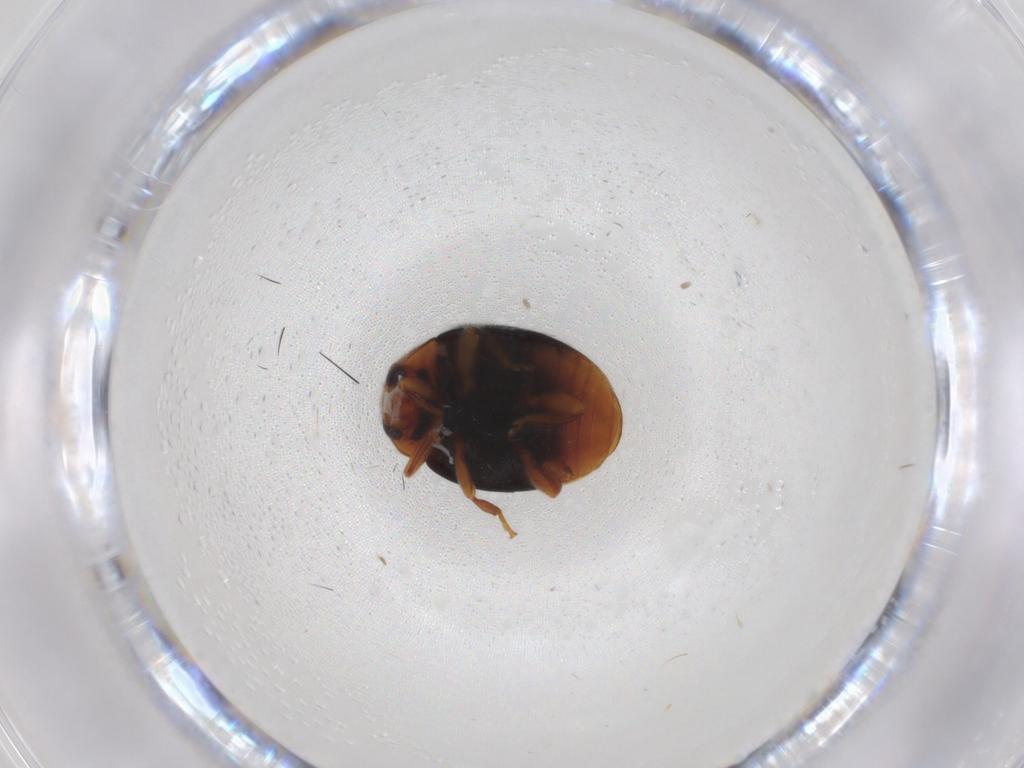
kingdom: Animalia
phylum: Arthropoda
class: Insecta
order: Coleoptera
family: Coccinellidae
